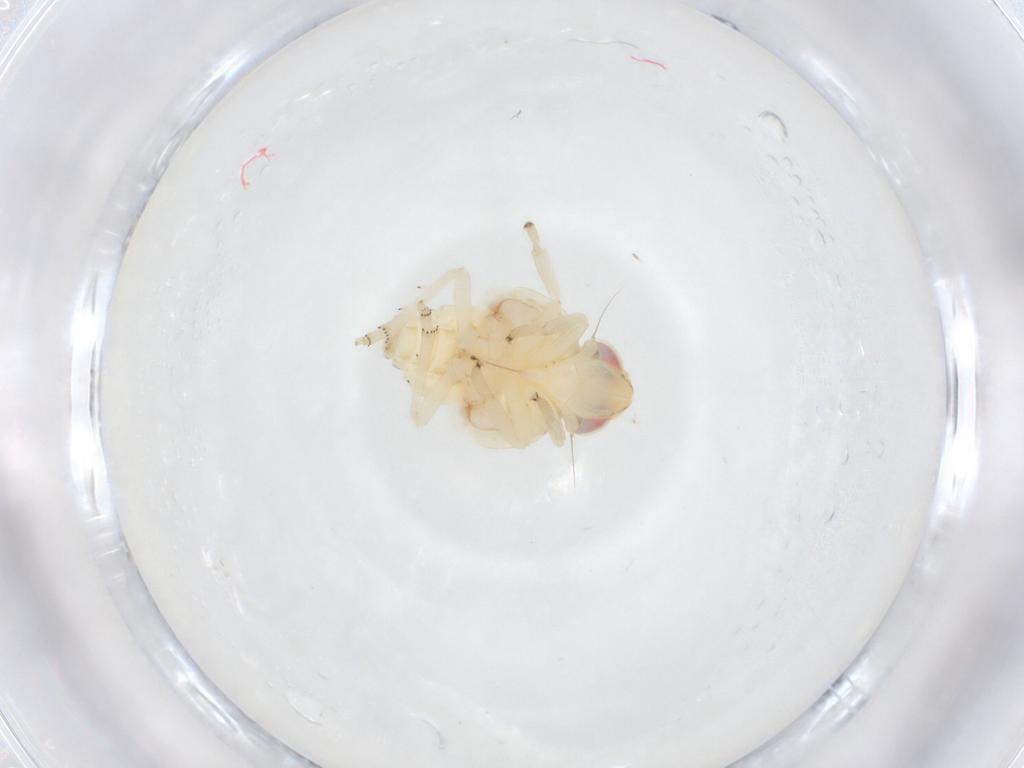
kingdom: Animalia
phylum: Arthropoda
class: Insecta
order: Hemiptera
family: Nogodinidae
